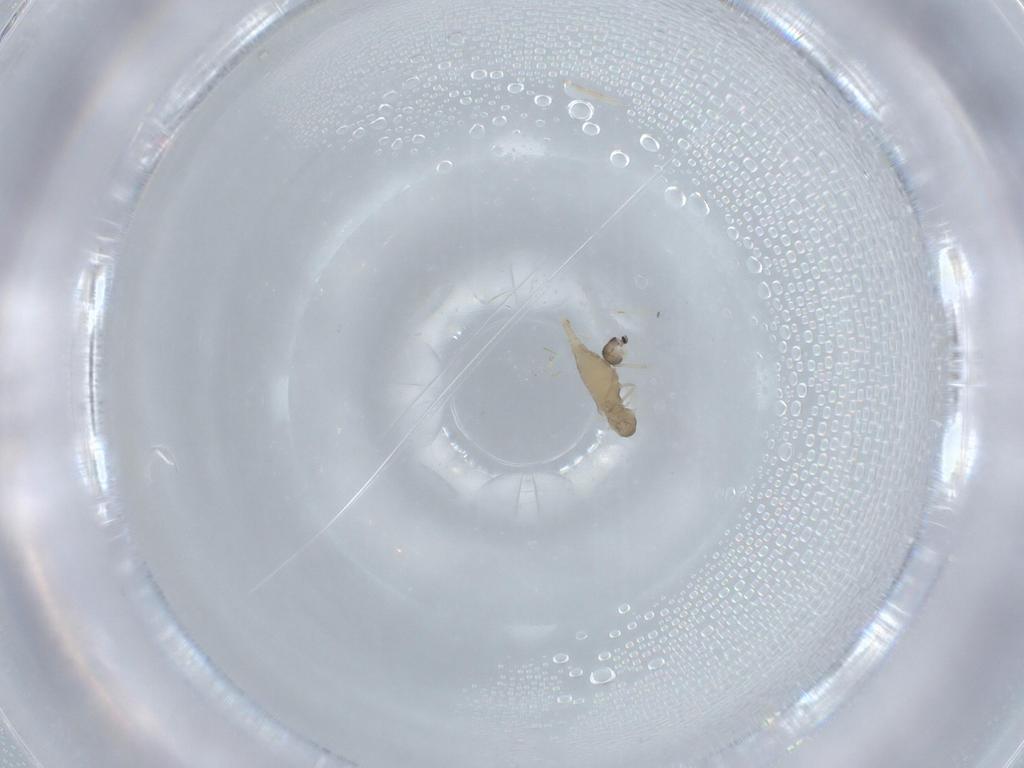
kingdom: Animalia
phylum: Arthropoda
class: Insecta
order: Diptera
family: Cecidomyiidae
